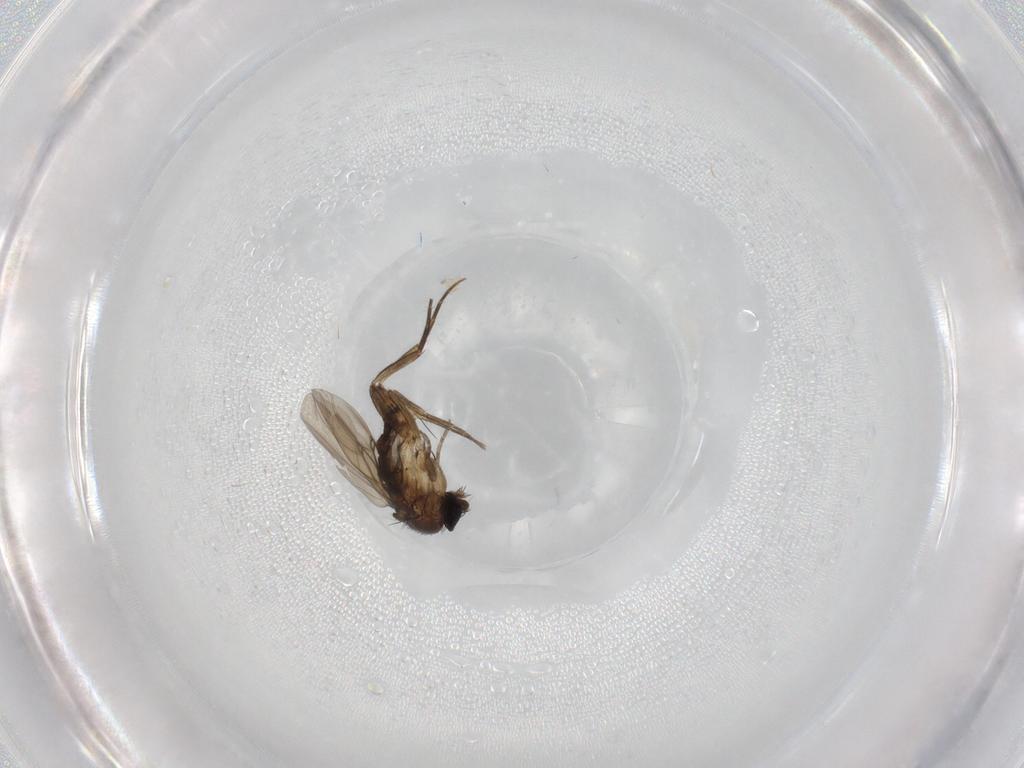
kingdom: Animalia
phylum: Arthropoda
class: Insecta
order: Diptera
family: Phoridae
